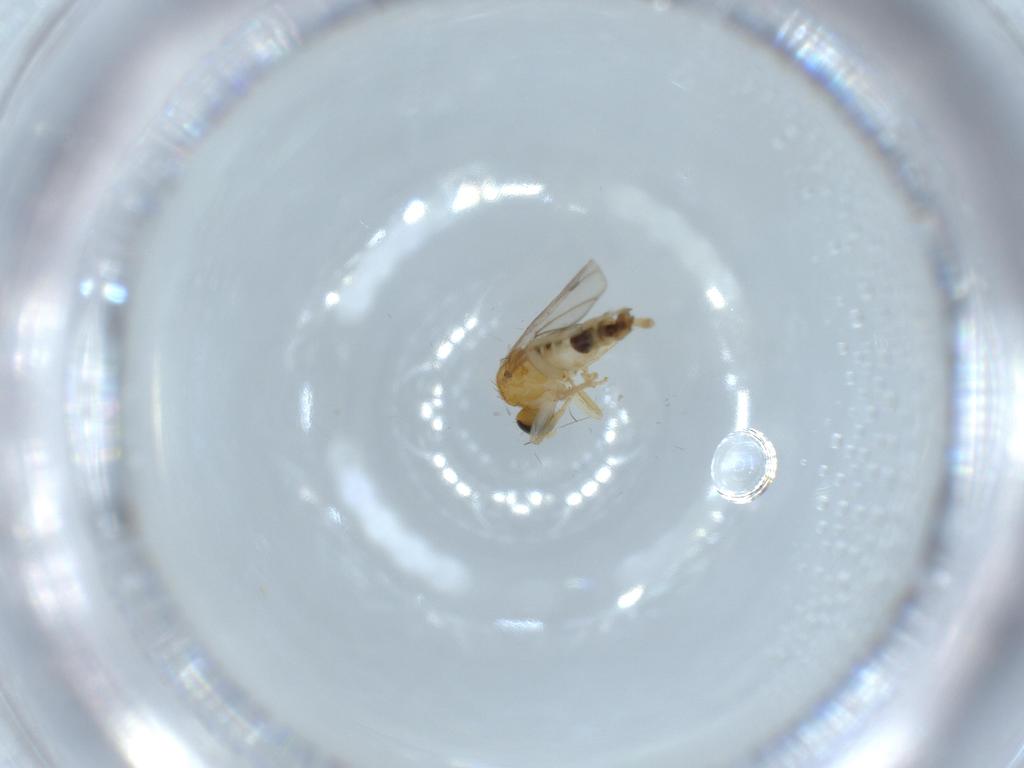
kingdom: Animalia
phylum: Arthropoda
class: Insecta
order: Diptera
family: Hybotidae
